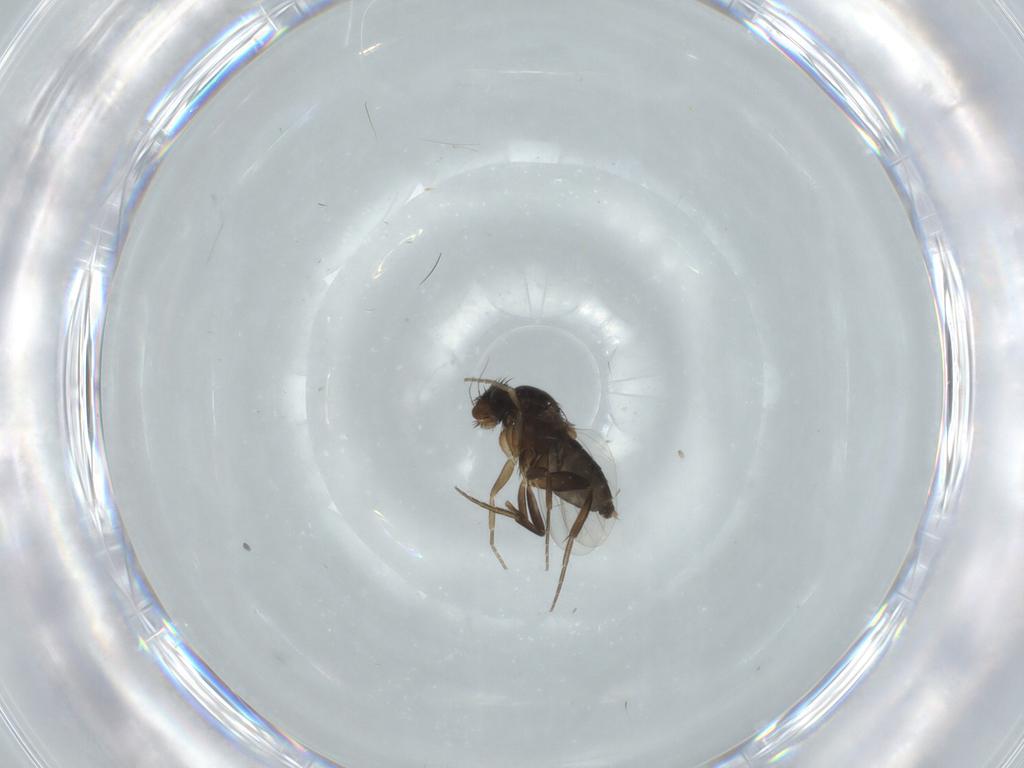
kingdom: Animalia
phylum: Arthropoda
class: Insecta
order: Diptera
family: Phoridae
